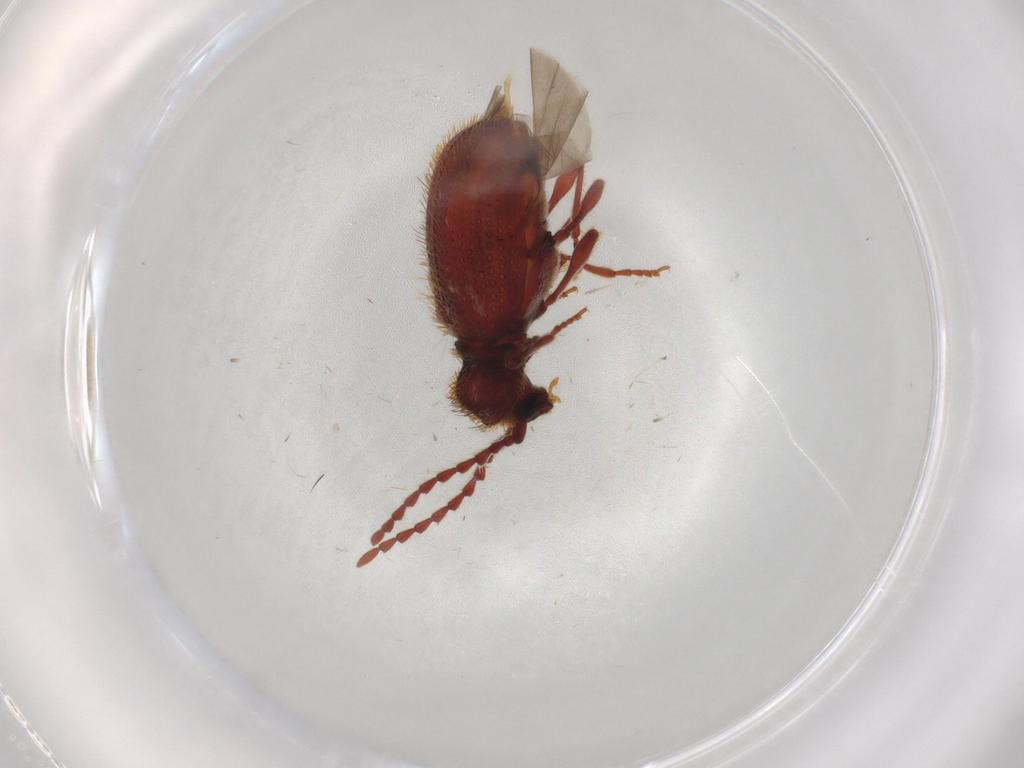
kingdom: Animalia
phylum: Arthropoda
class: Insecta
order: Coleoptera
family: Ptinidae
